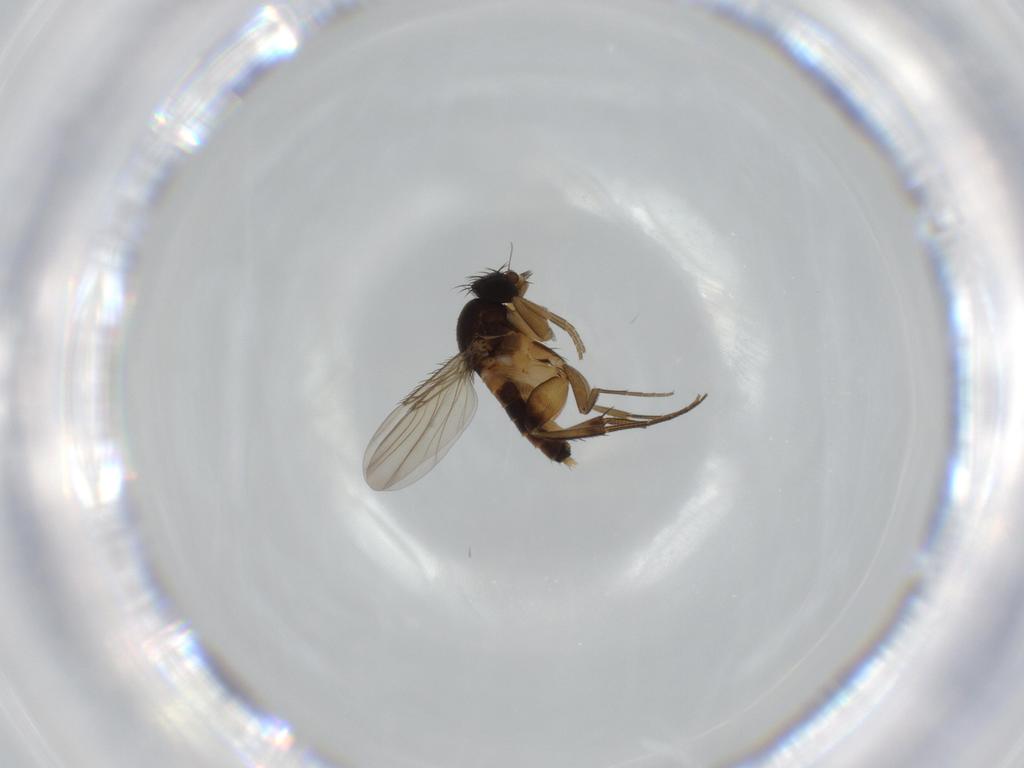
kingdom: Animalia
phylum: Arthropoda
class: Insecta
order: Diptera
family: Phoridae
